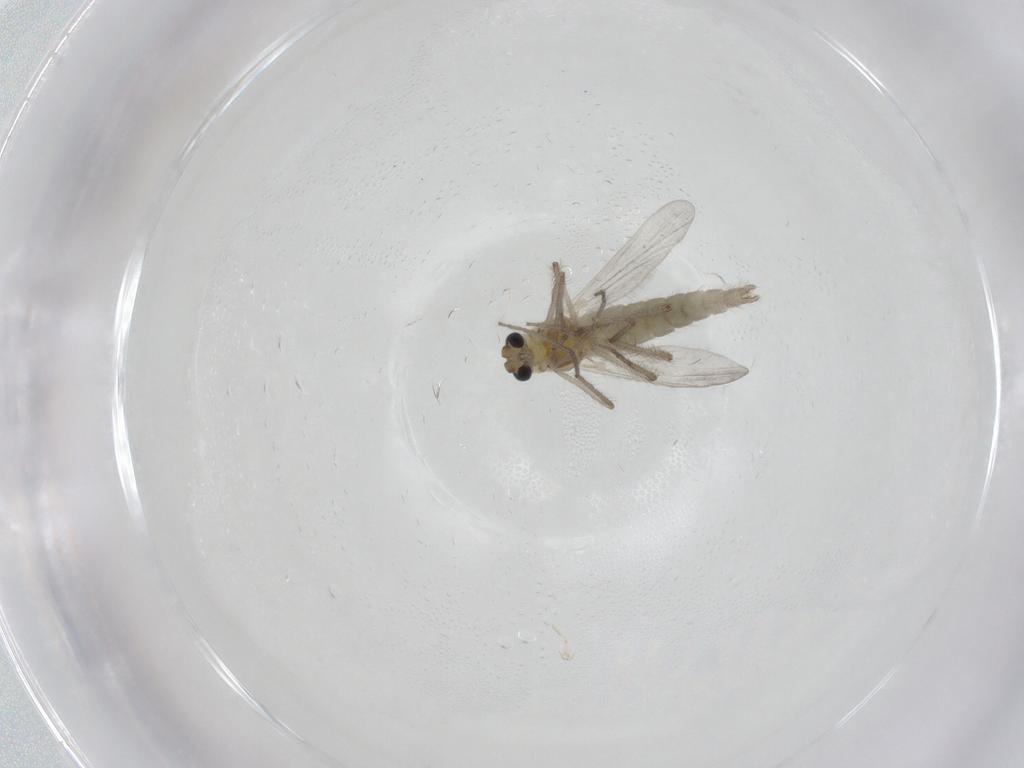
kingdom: Animalia
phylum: Arthropoda
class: Insecta
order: Diptera
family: Chironomidae
